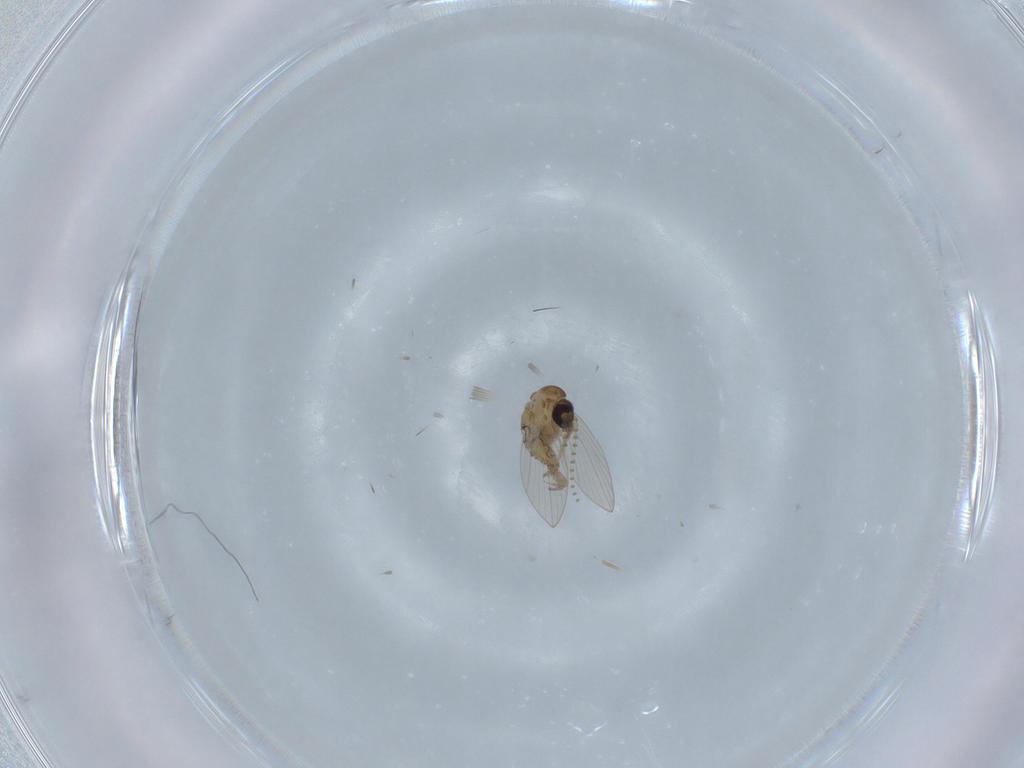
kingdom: Animalia
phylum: Arthropoda
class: Insecta
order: Diptera
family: Psychodidae
